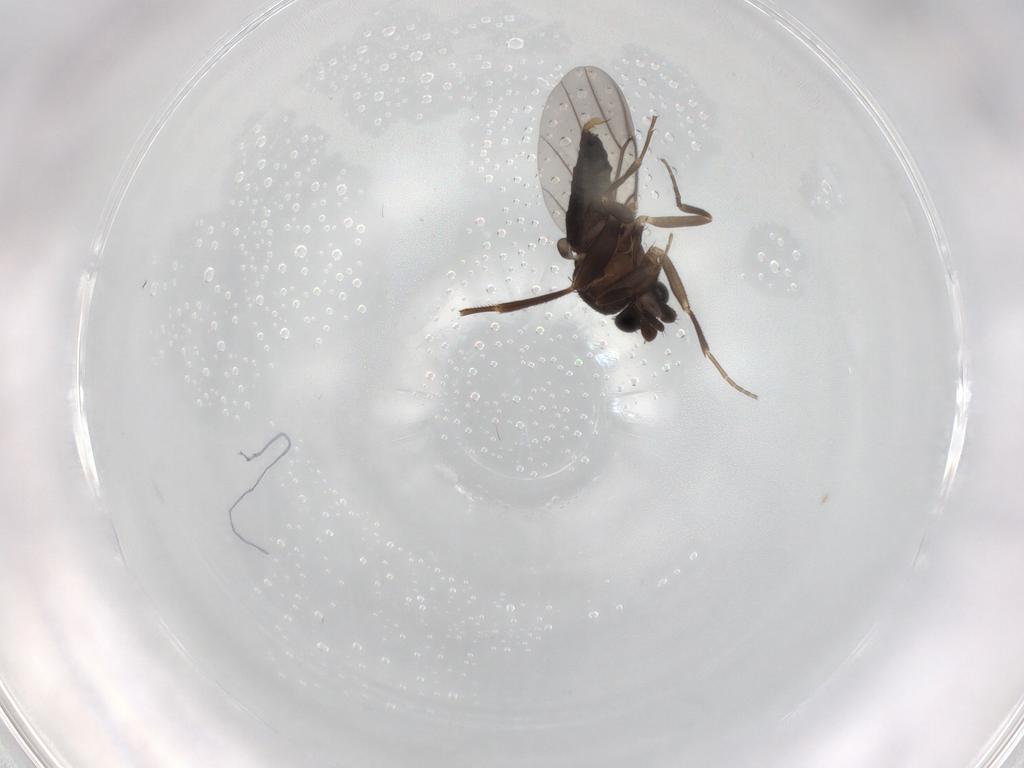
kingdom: Animalia
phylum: Arthropoda
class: Insecta
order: Diptera
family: Phoridae
